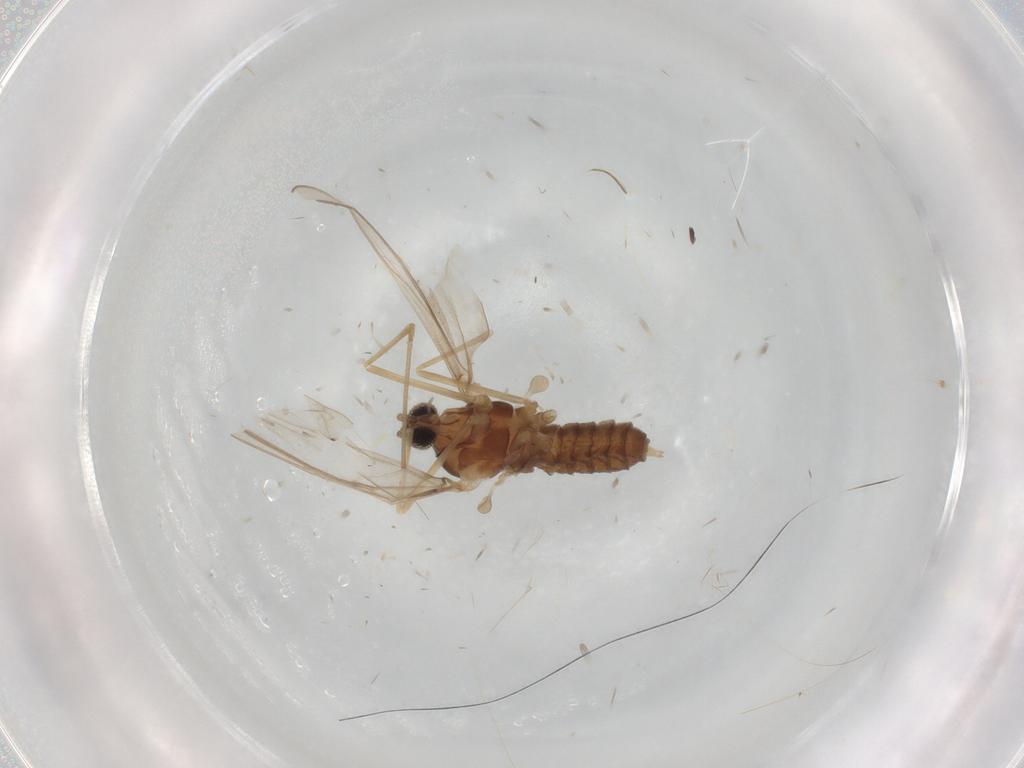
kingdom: Animalia
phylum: Arthropoda
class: Insecta
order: Diptera
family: Cecidomyiidae
